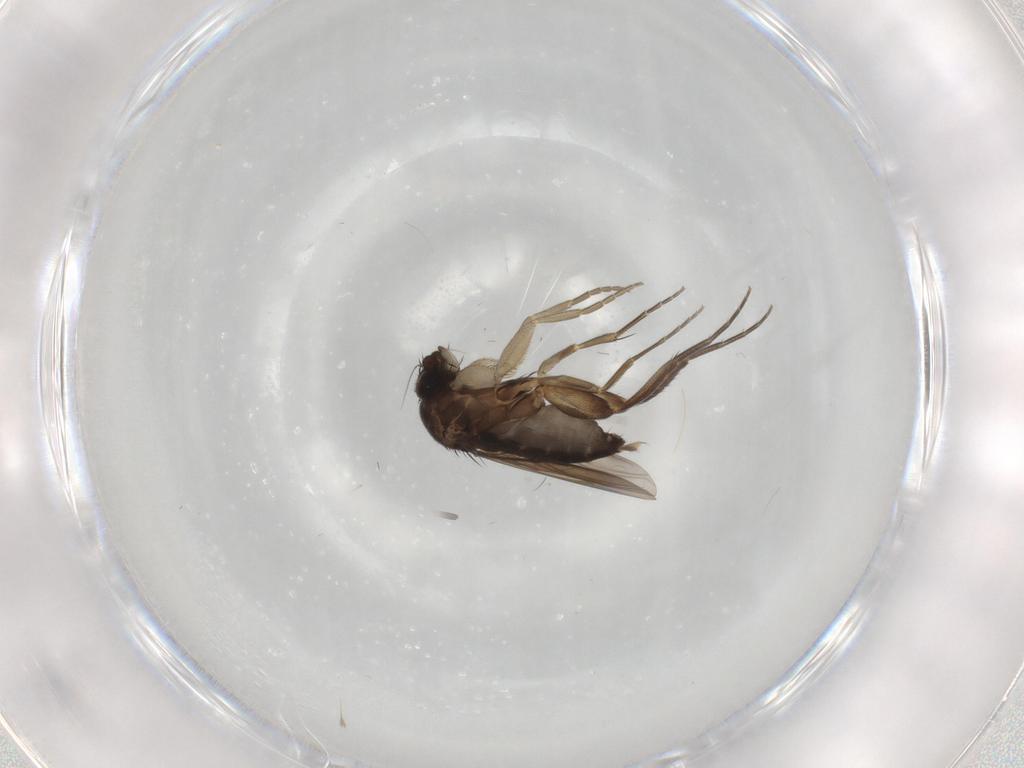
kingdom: Animalia
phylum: Arthropoda
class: Insecta
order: Diptera
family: Phoridae
